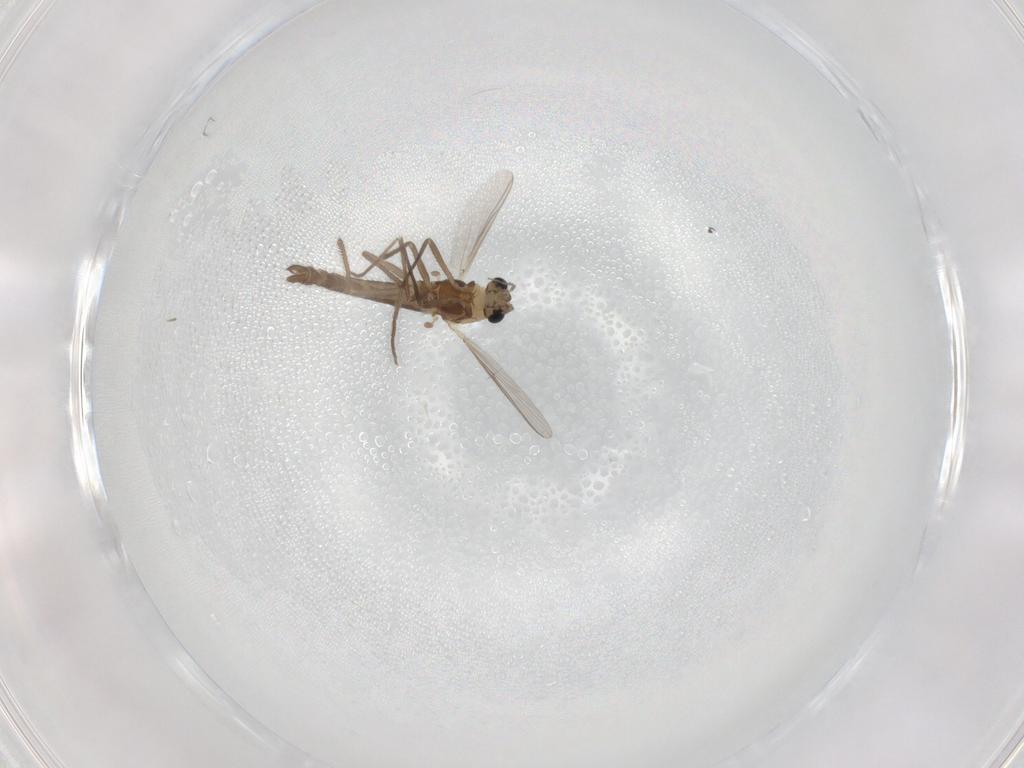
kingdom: Animalia
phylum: Arthropoda
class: Insecta
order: Diptera
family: Chironomidae
